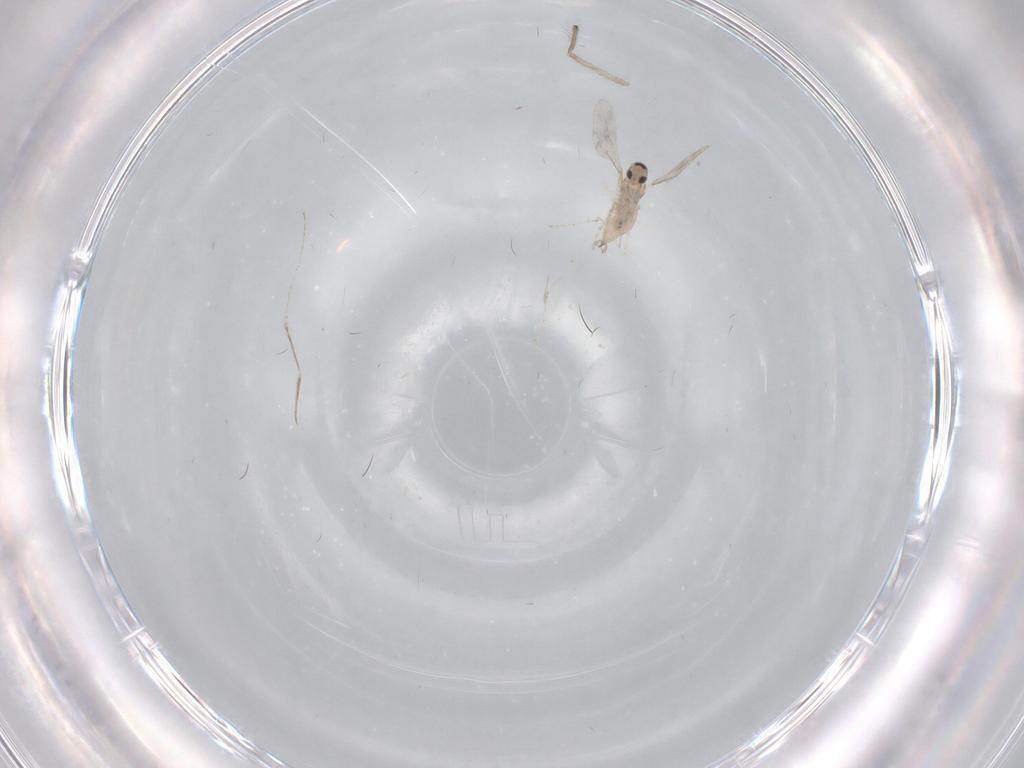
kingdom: Animalia
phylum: Arthropoda
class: Insecta
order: Diptera
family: Cecidomyiidae
